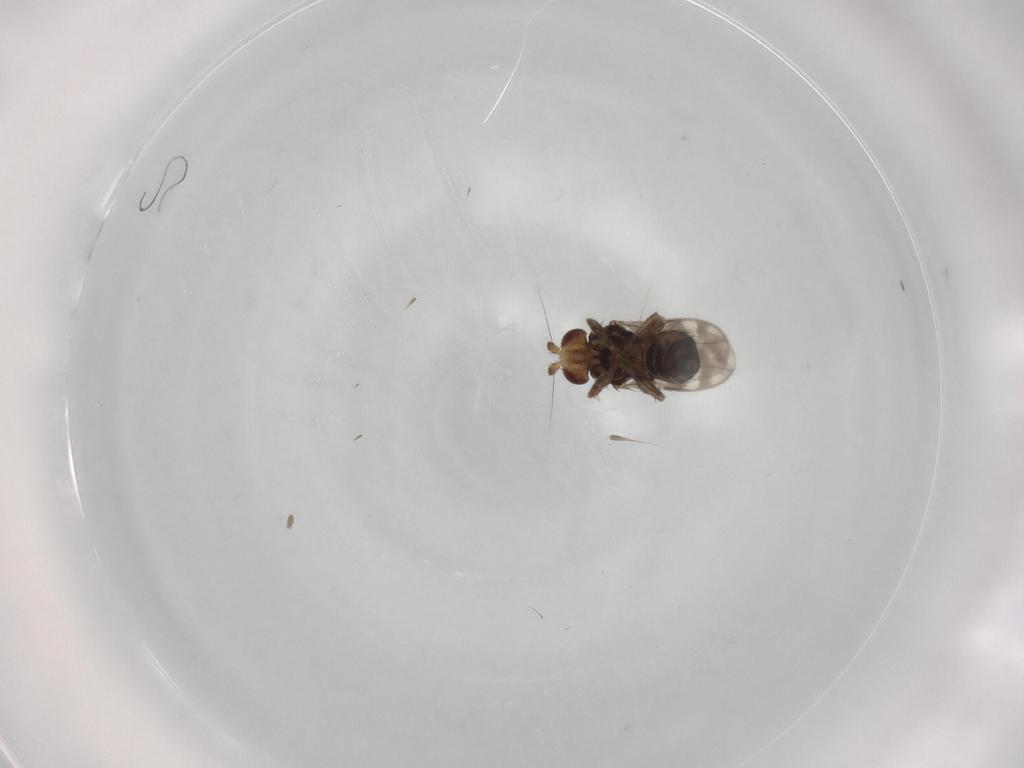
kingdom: Animalia
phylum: Arthropoda
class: Insecta
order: Diptera
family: Sphaeroceridae
